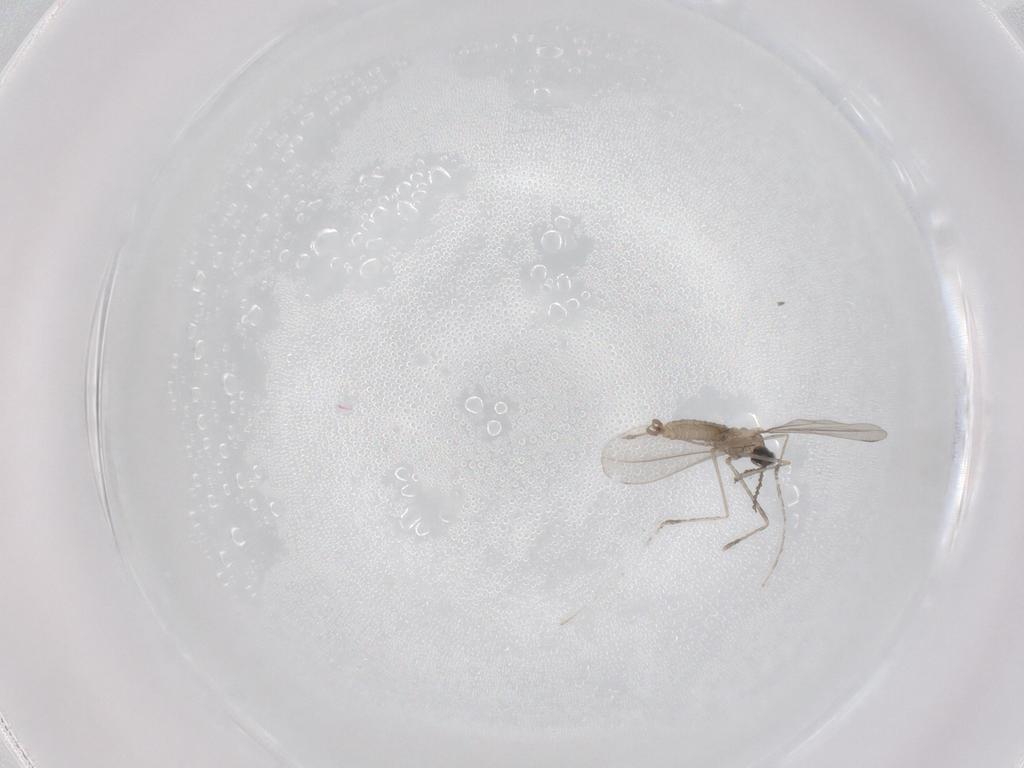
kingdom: Animalia
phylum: Arthropoda
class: Insecta
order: Diptera
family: Cecidomyiidae
